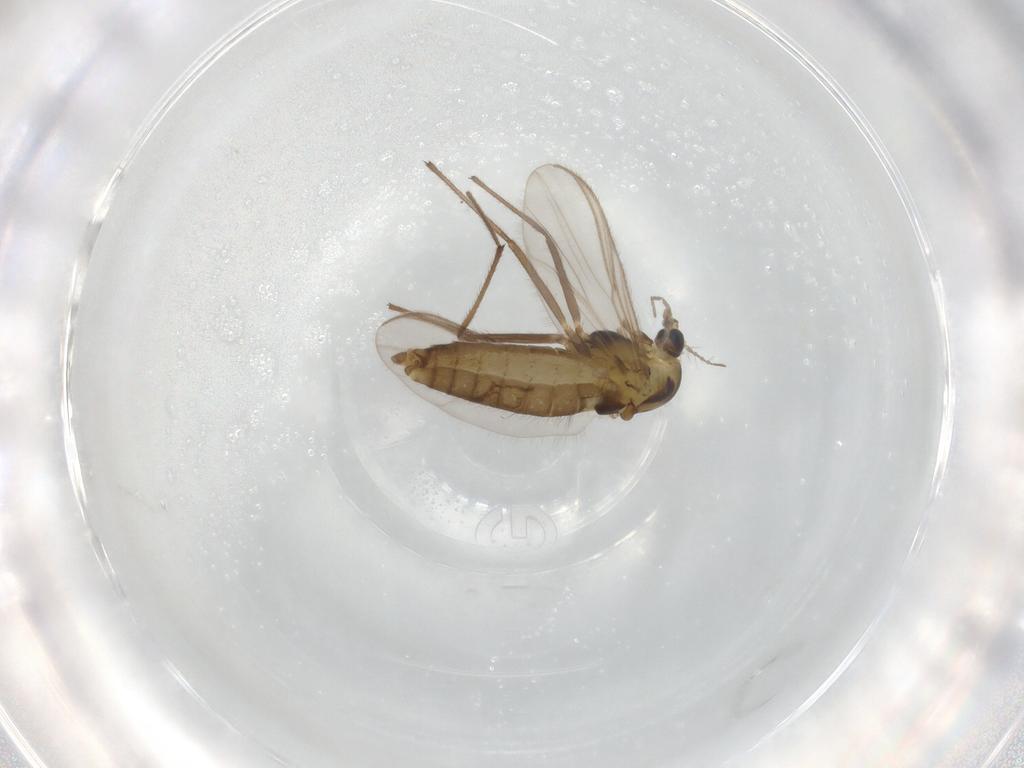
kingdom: Animalia
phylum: Arthropoda
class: Insecta
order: Diptera
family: Chironomidae
